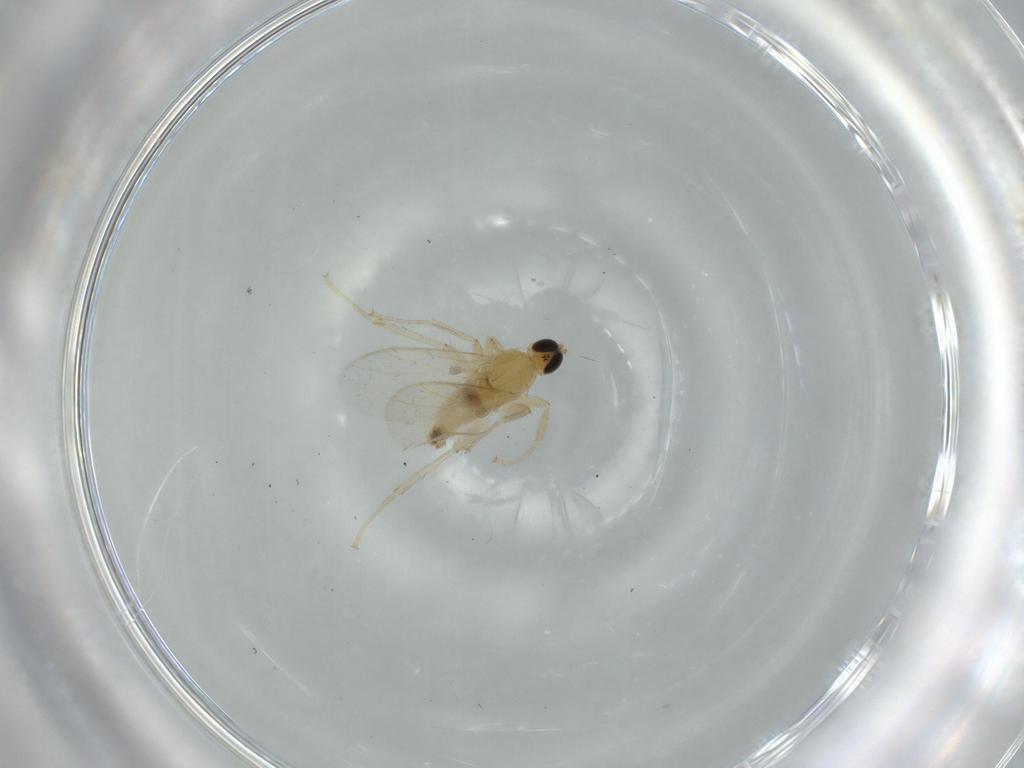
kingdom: Animalia
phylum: Arthropoda
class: Insecta
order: Diptera
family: Hybotidae
